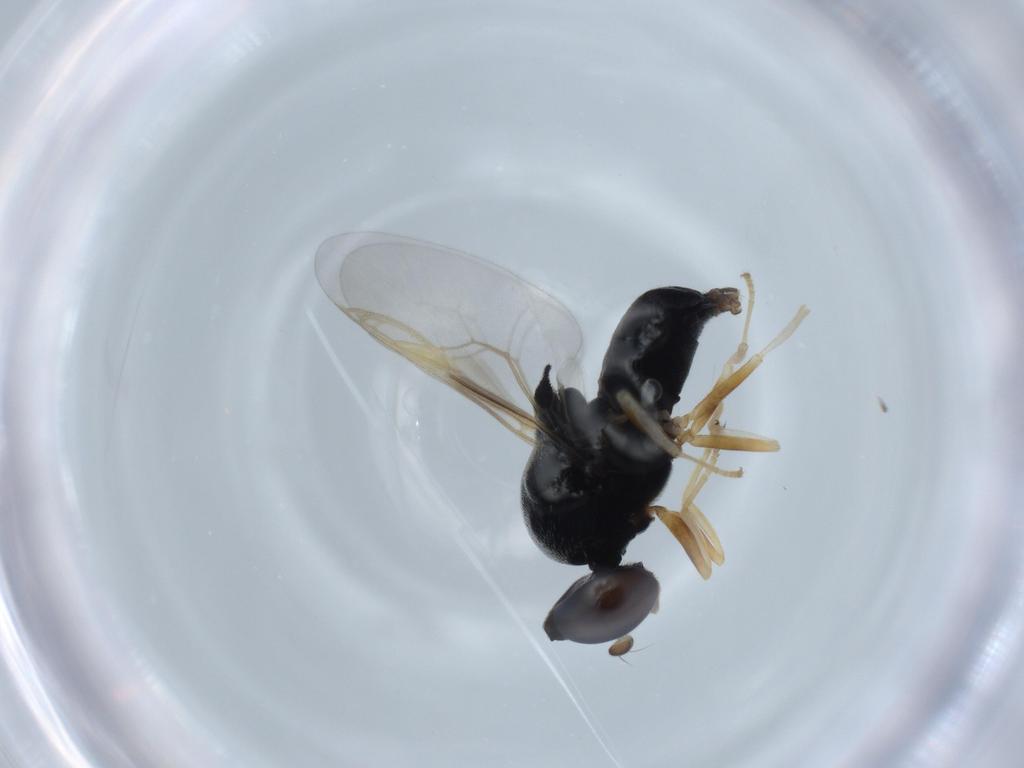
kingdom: Animalia
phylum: Arthropoda
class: Insecta
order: Diptera
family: Stratiomyidae
